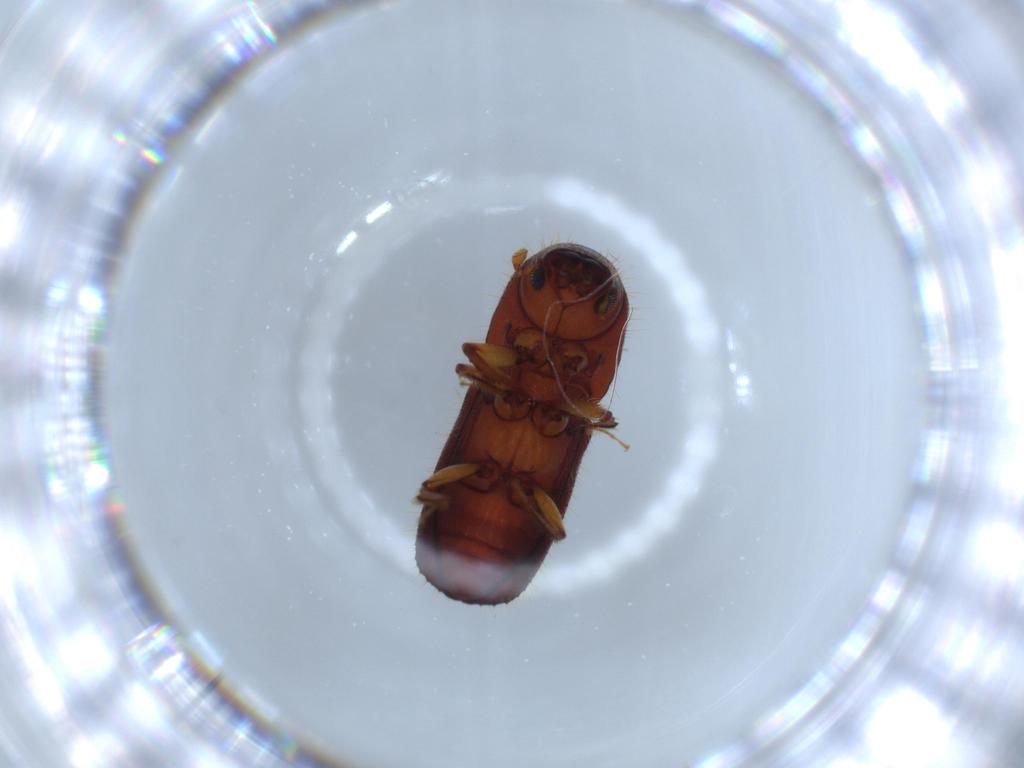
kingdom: Animalia
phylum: Arthropoda
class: Insecta
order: Coleoptera
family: Curculionidae
